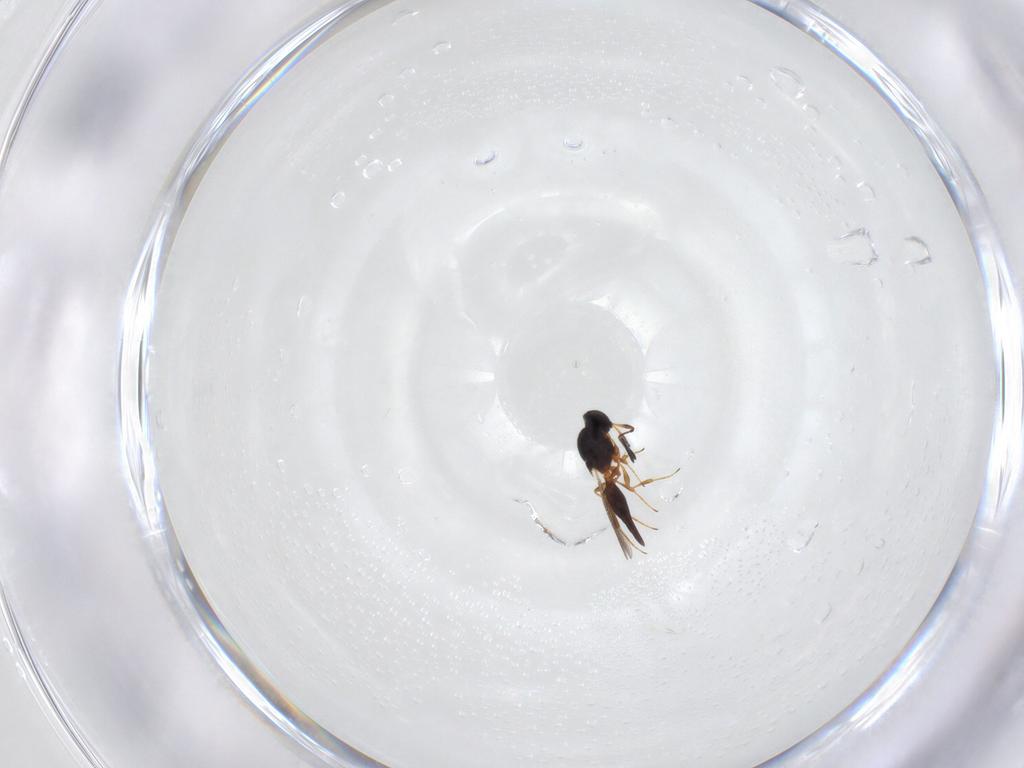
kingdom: Animalia
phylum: Arthropoda
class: Insecta
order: Hymenoptera
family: Platygastridae
